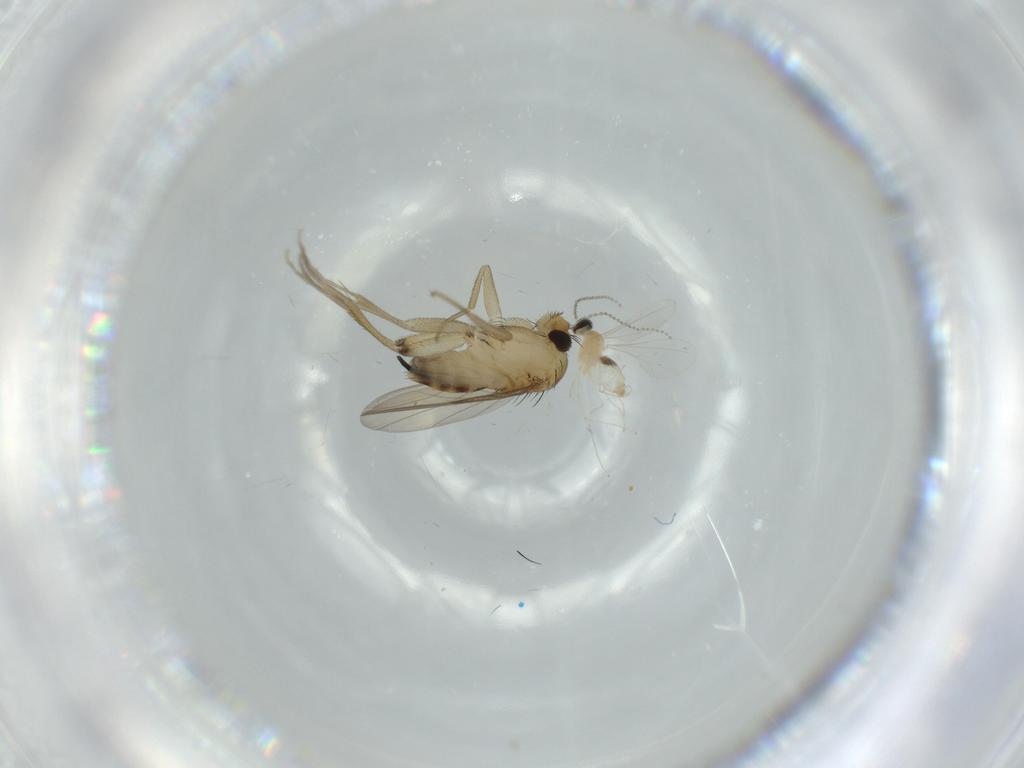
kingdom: Animalia
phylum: Arthropoda
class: Insecta
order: Diptera
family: Phoridae
